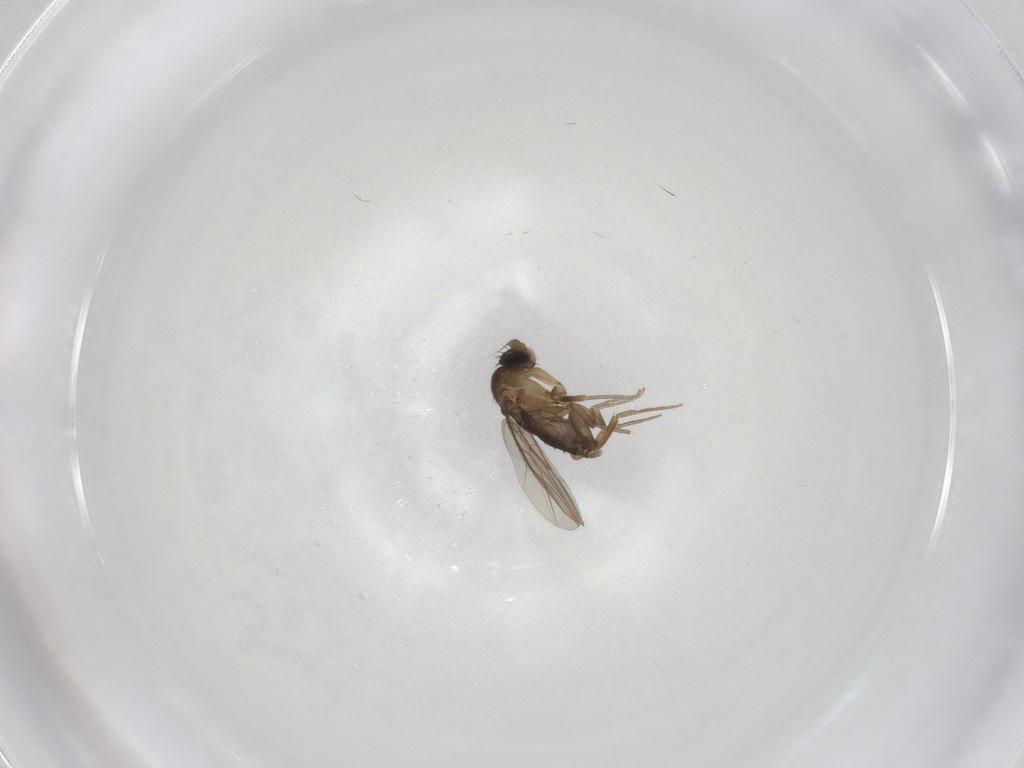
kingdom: Animalia
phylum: Arthropoda
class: Insecta
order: Diptera
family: Phoridae
